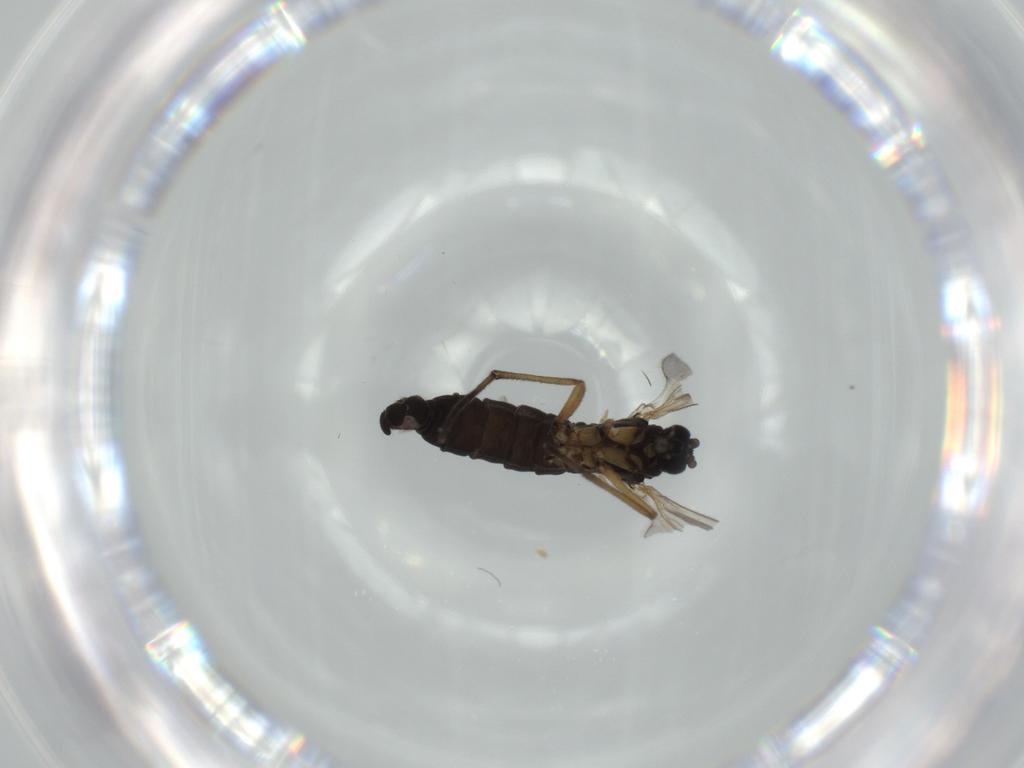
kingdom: Animalia
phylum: Arthropoda
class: Insecta
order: Diptera
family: Sciaridae
